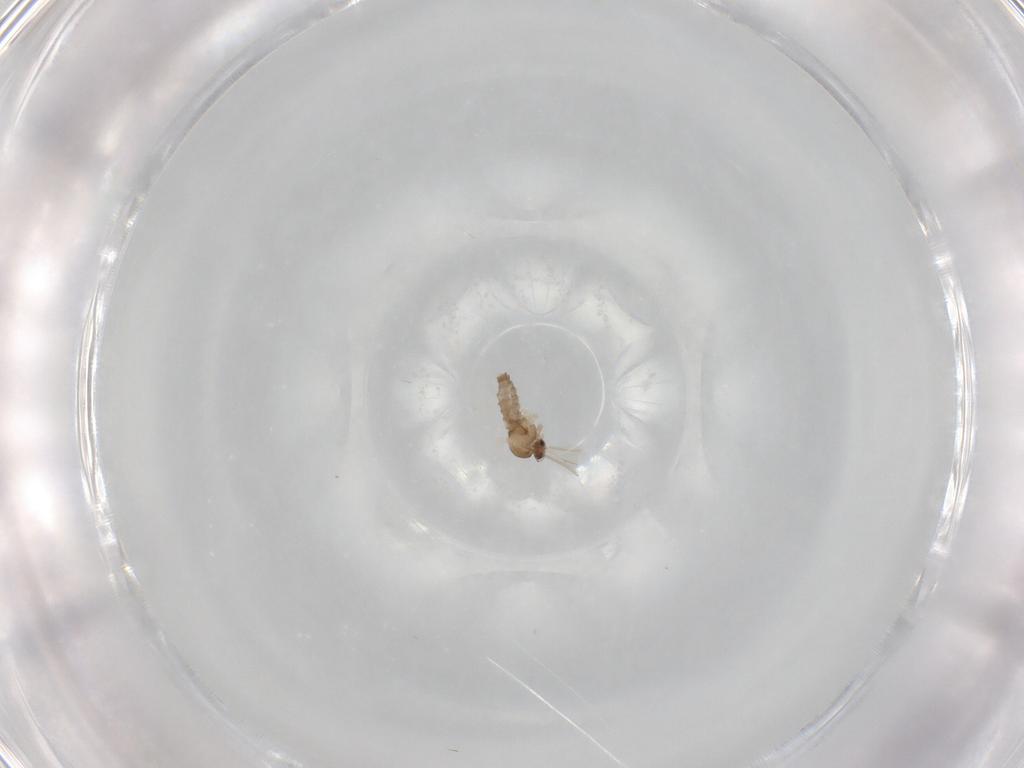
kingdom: Animalia
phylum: Arthropoda
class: Insecta
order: Diptera
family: Cecidomyiidae
